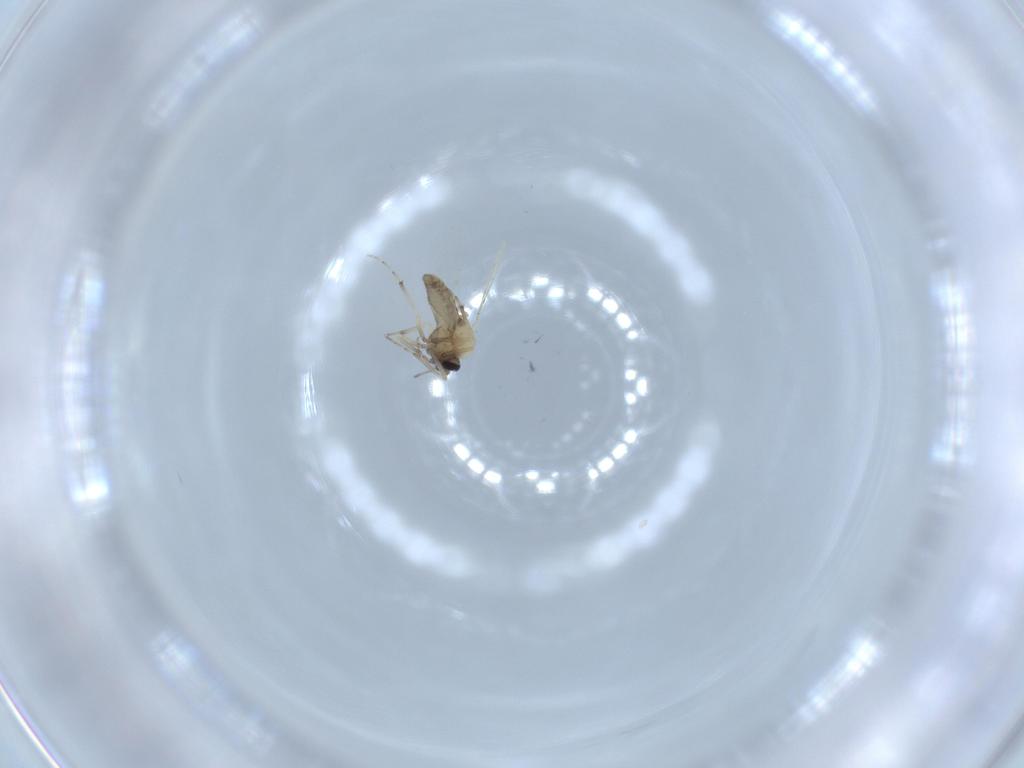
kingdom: Animalia
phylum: Arthropoda
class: Insecta
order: Diptera
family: Ceratopogonidae
